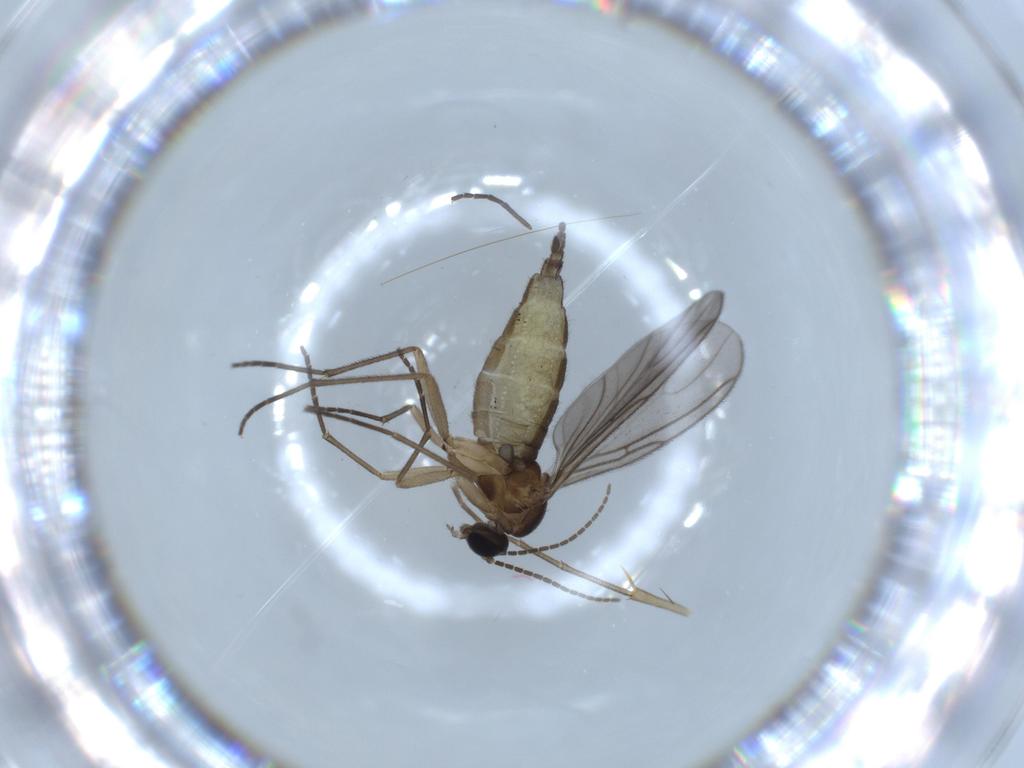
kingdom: Animalia
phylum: Arthropoda
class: Insecta
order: Diptera
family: Sciaridae
